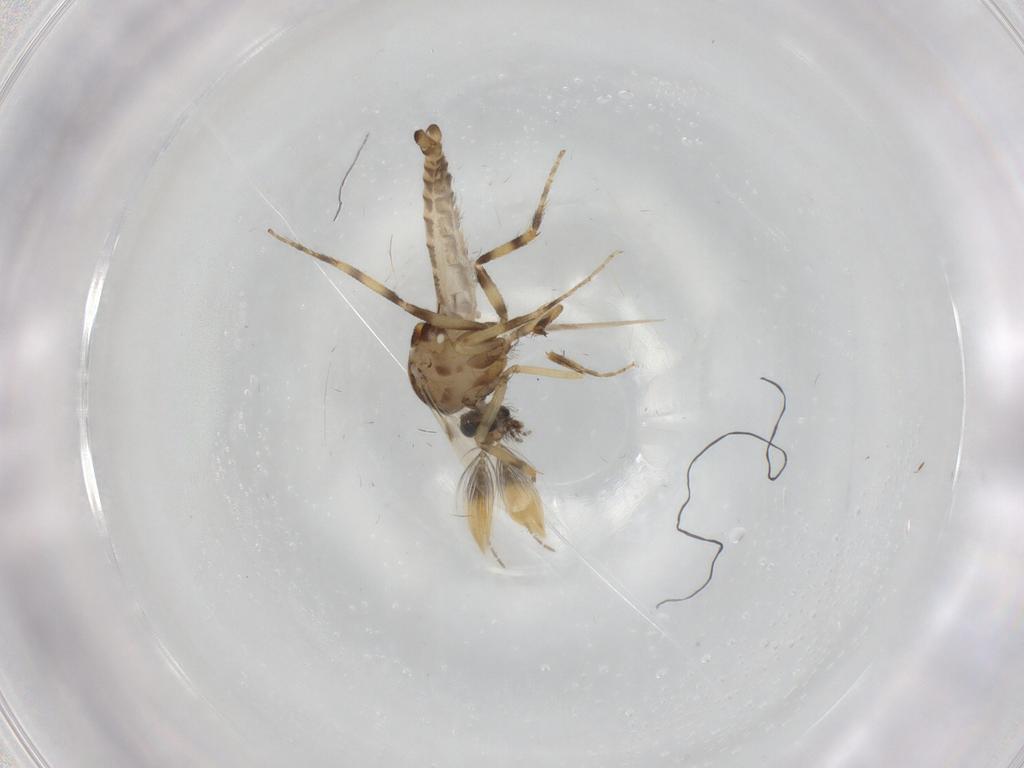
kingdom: Animalia
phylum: Arthropoda
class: Insecta
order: Diptera
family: Ceratopogonidae
